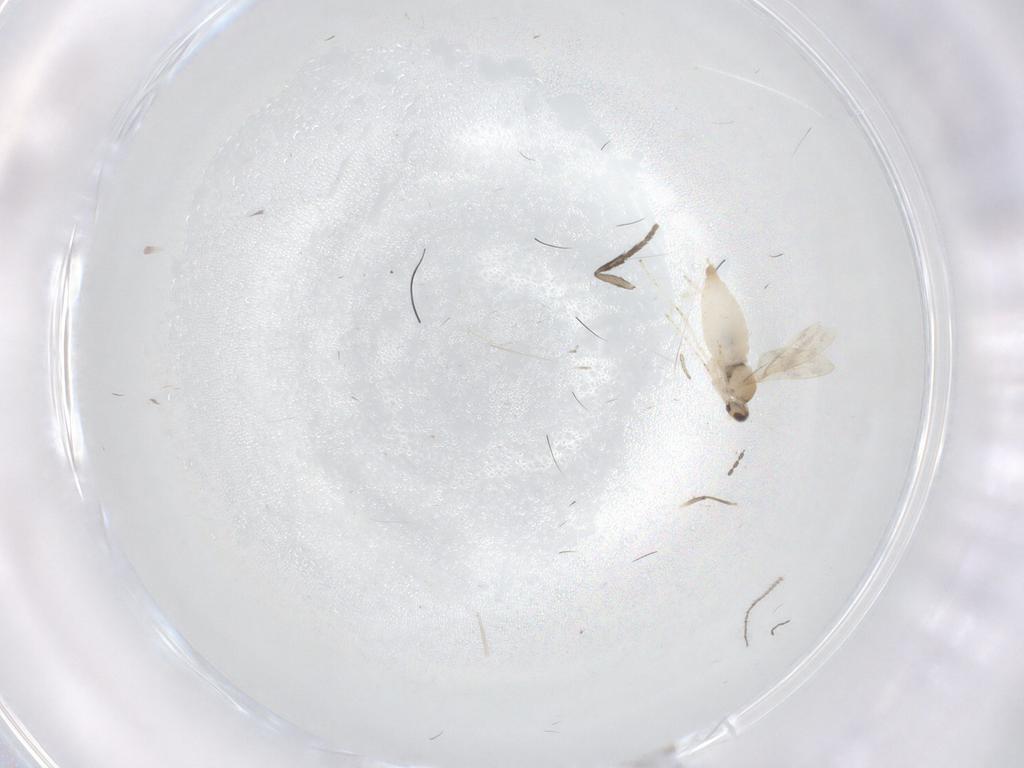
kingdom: Animalia
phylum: Arthropoda
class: Insecta
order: Diptera
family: Cecidomyiidae
